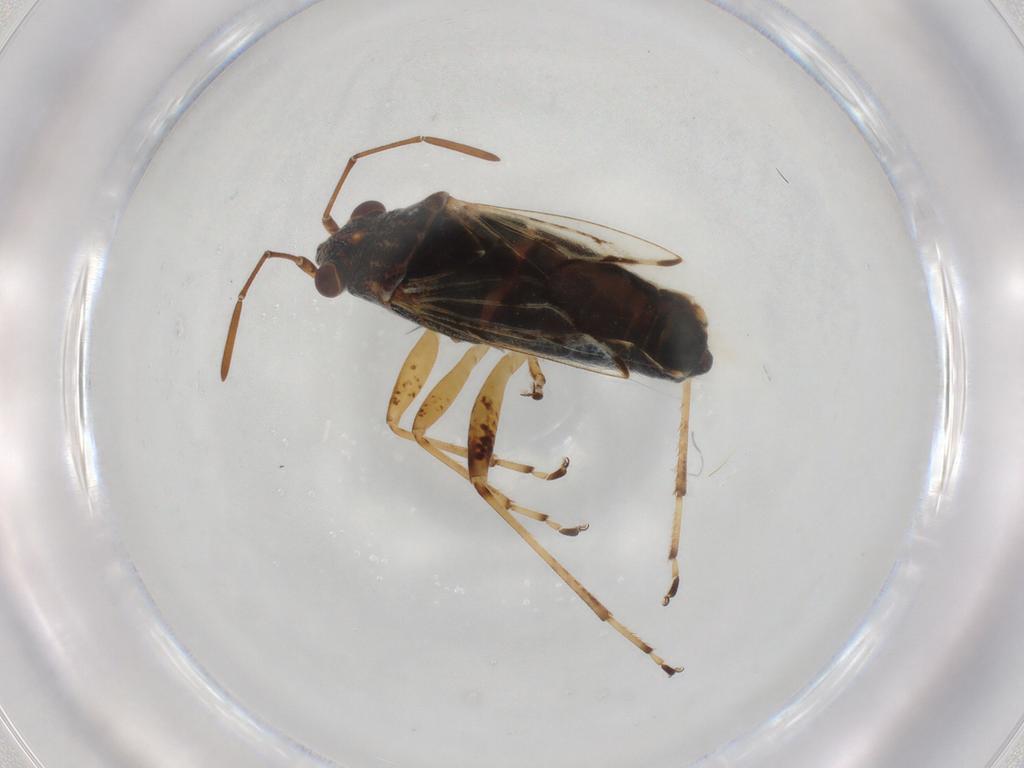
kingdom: Animalia
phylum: Arthropoda
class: Insecta
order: Hemiptera
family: Lygaeidae
